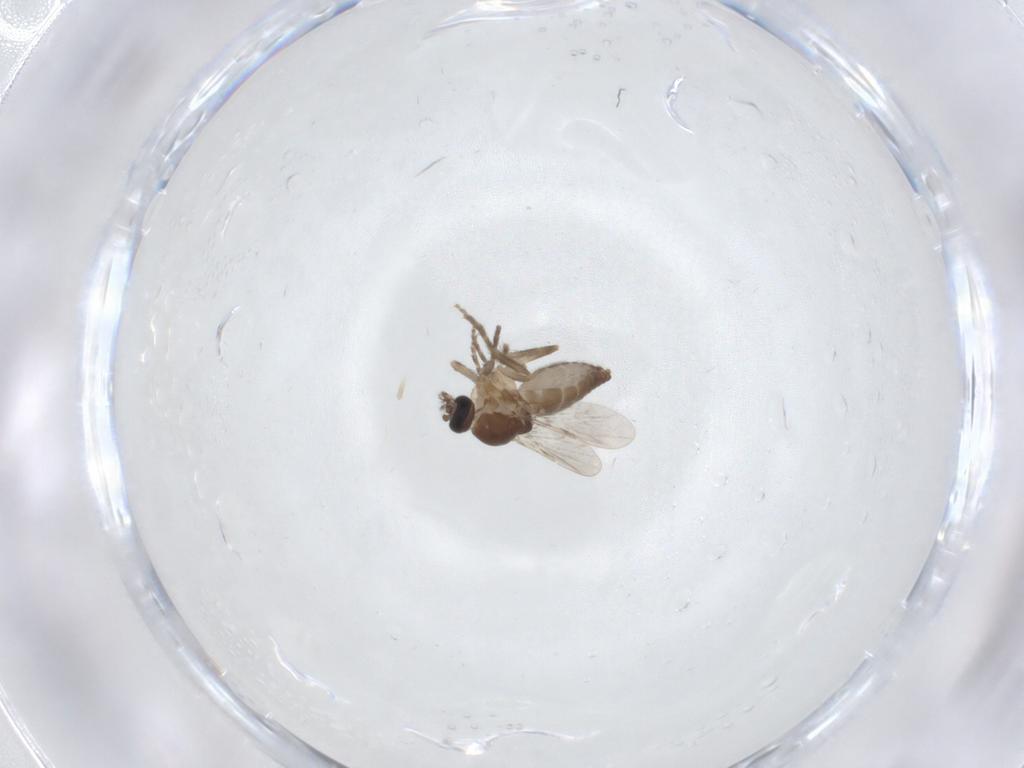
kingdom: Animalia
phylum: Arthropoda
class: Insecta
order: Diptera
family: Ceratopogonidae
